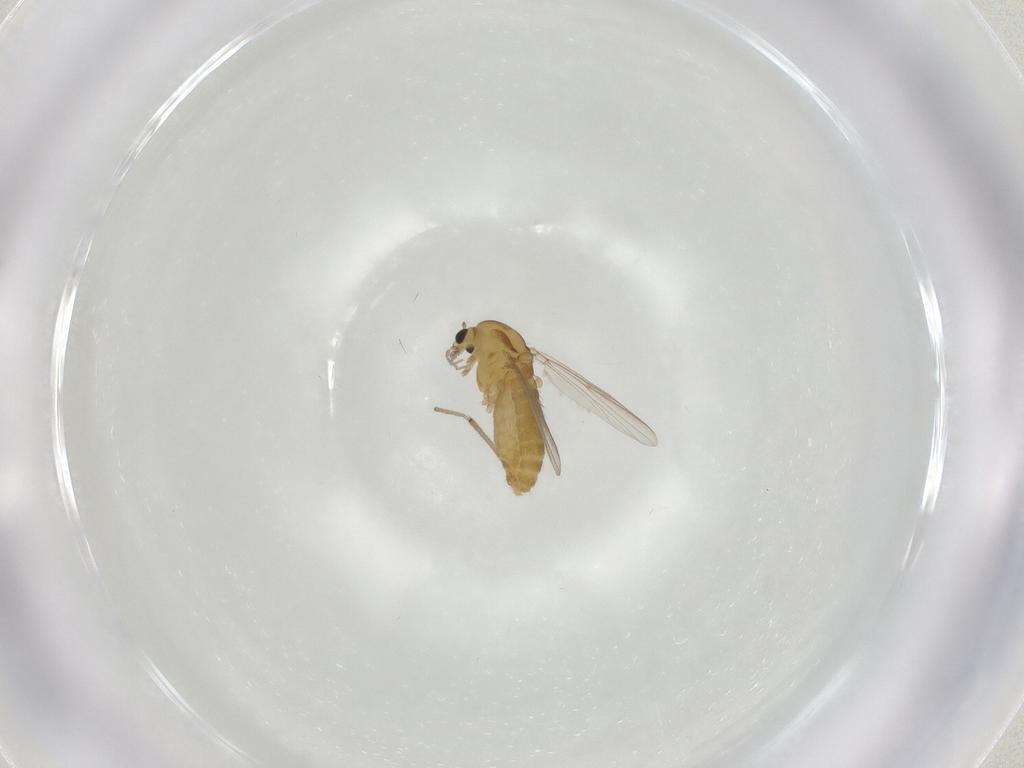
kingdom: Animalia
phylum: Arthropoda
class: Insecta
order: Diptera
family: Chironomidae
